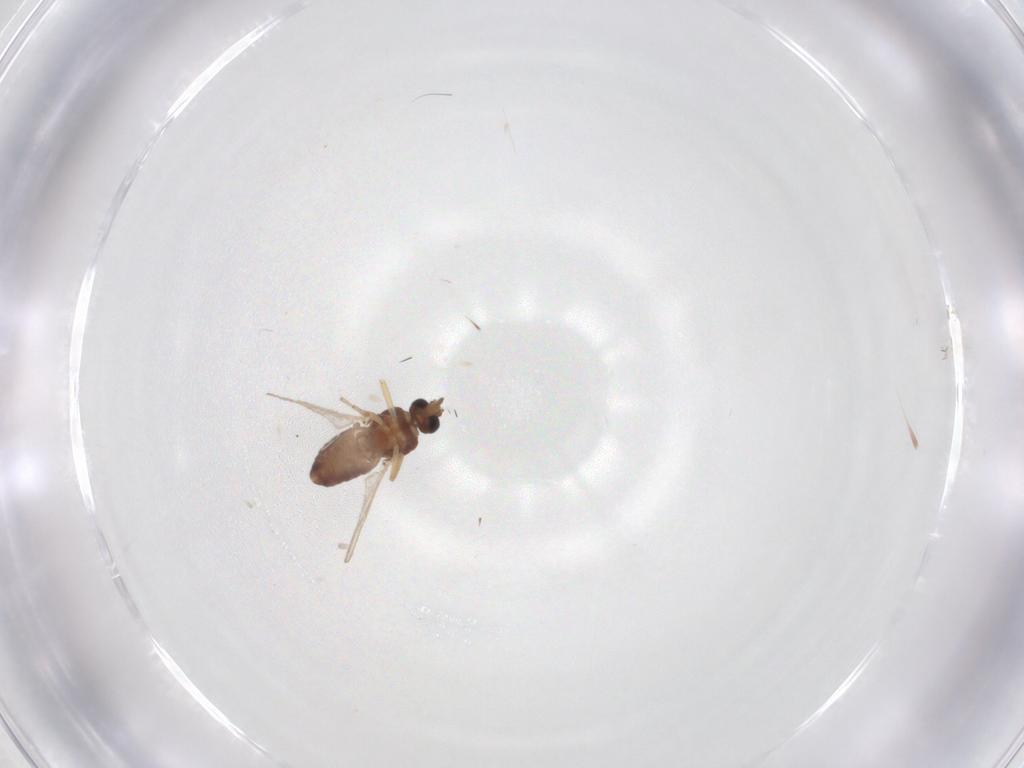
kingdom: Animalia
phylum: Arthropoda
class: Insecta
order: Diptera
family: Ceratopogonidae
